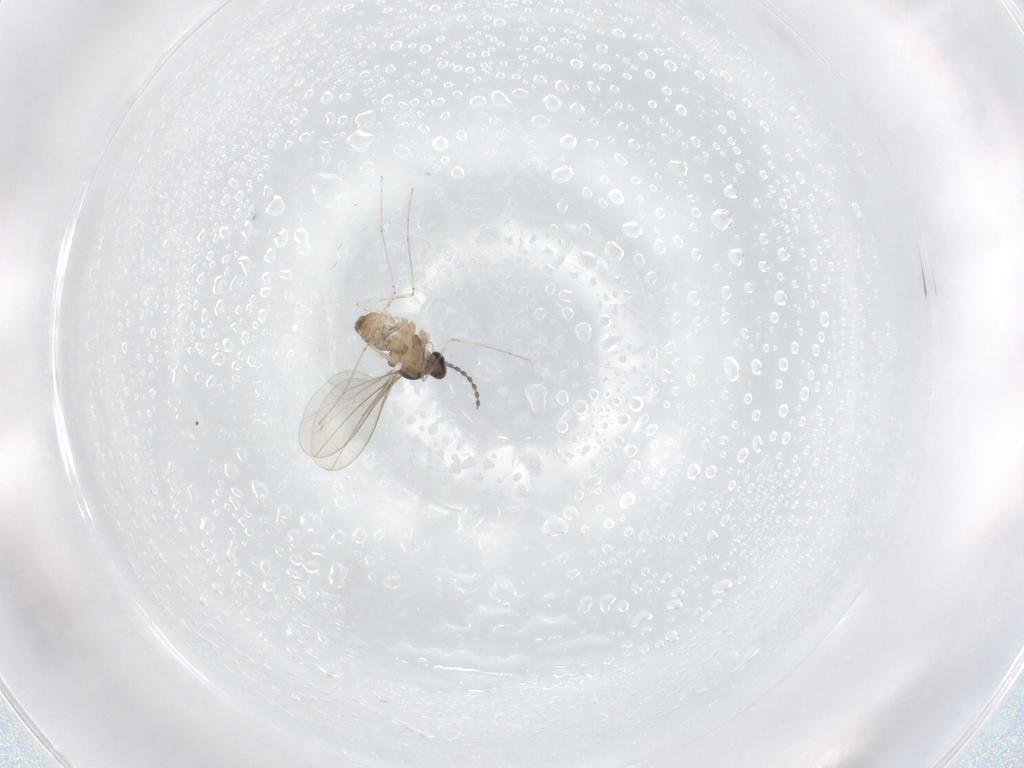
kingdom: Animalia
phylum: Arthropoda
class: Insecta
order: Diptera
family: Cecidomyiidae
